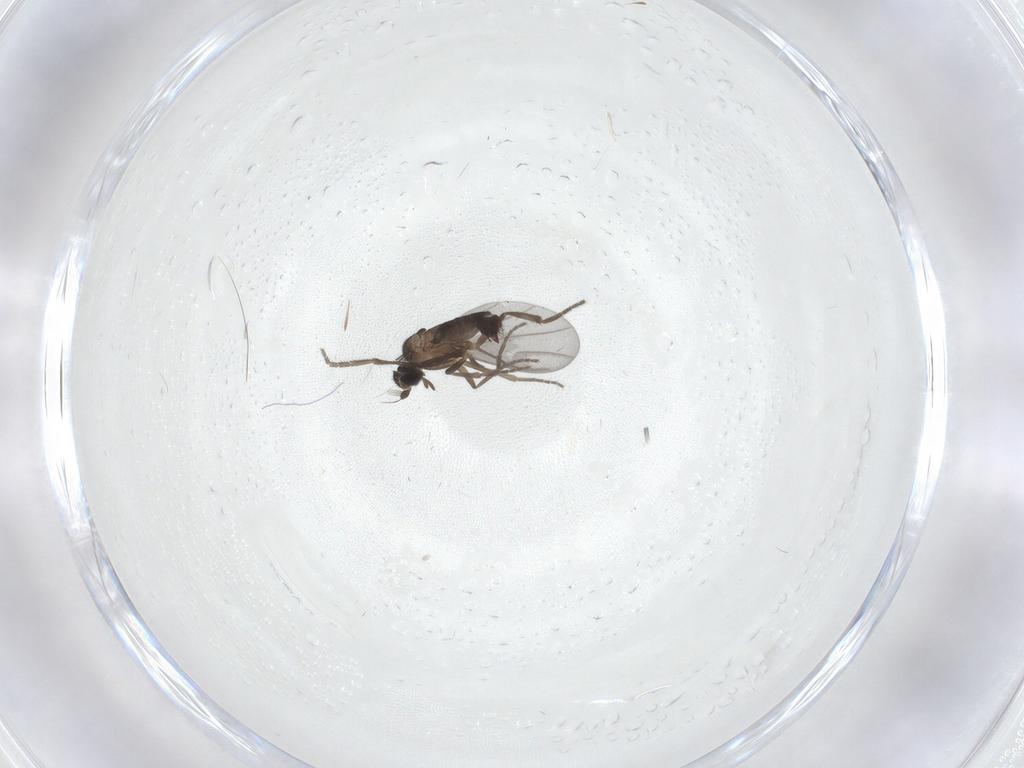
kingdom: Animalia
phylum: Arthropoda
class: Insecta
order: Diptera
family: Phoridae
